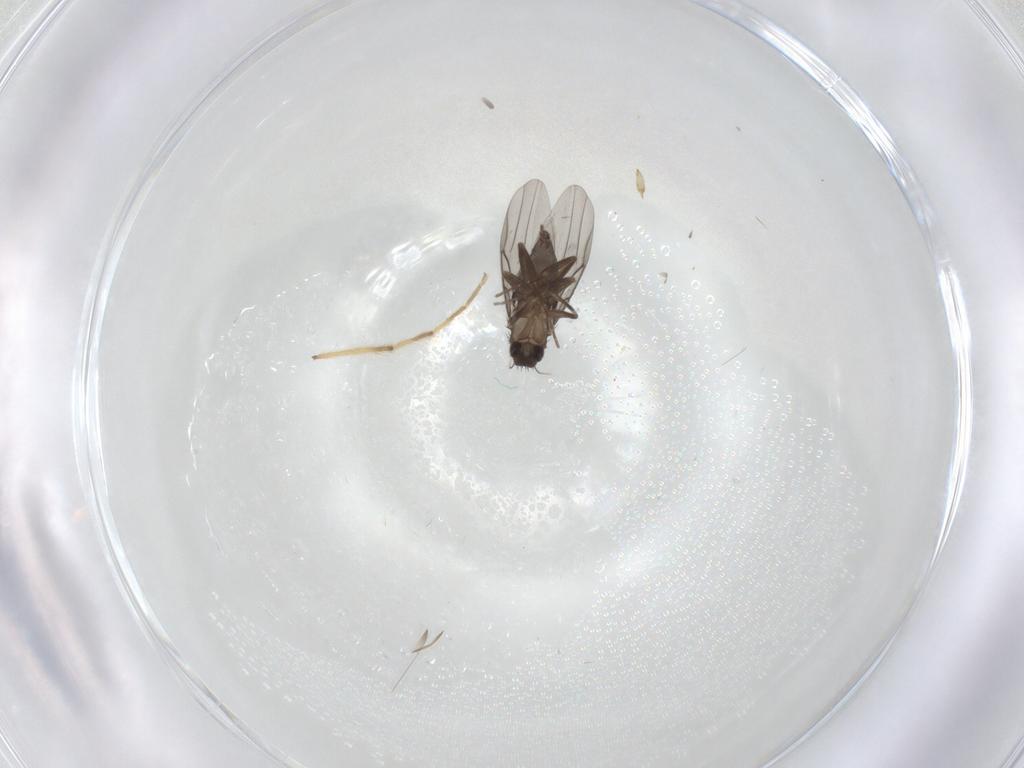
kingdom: Animalia
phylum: Arthropoda
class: Insecta
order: Diptera
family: Phoridae
